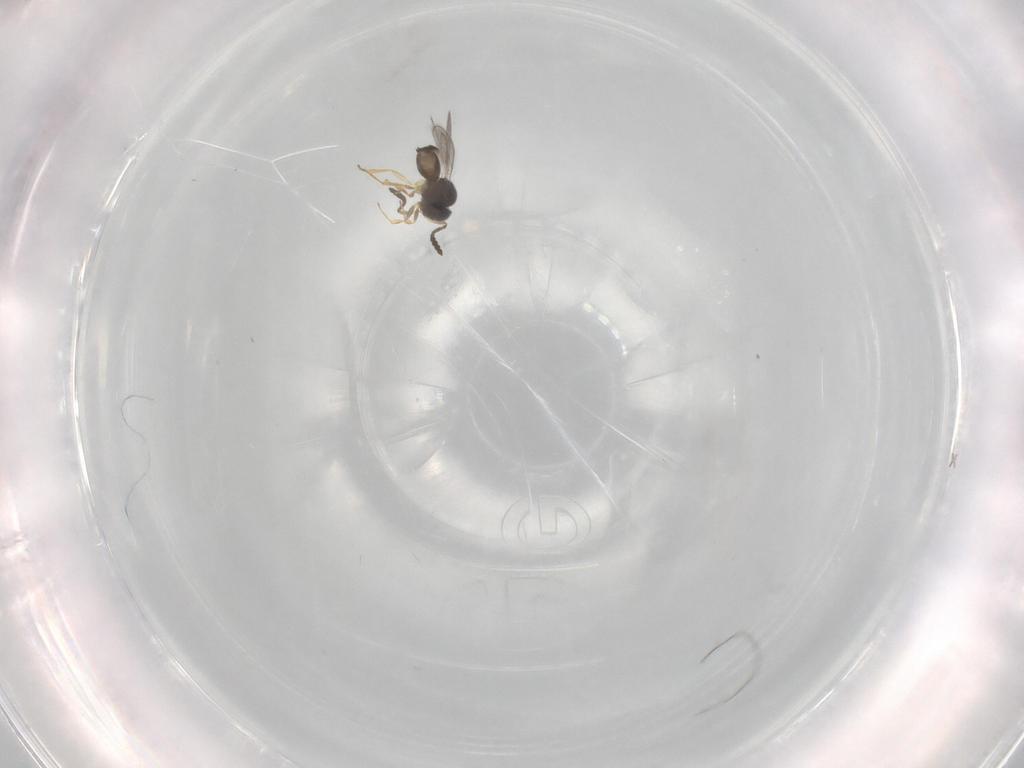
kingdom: Animalia
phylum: Arthropoda
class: Insecta
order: Hymenoptera
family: Scelionidae
